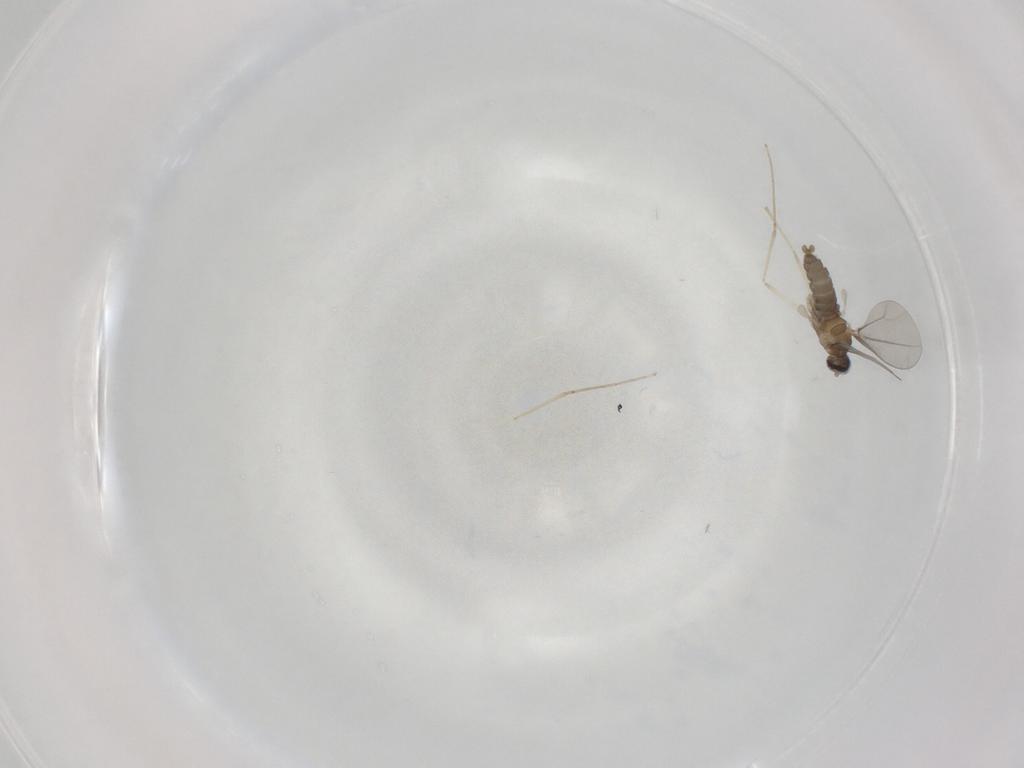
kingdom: Animalia
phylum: Arthropoda
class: Insecta
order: Diptera
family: Cecidomyiidae
